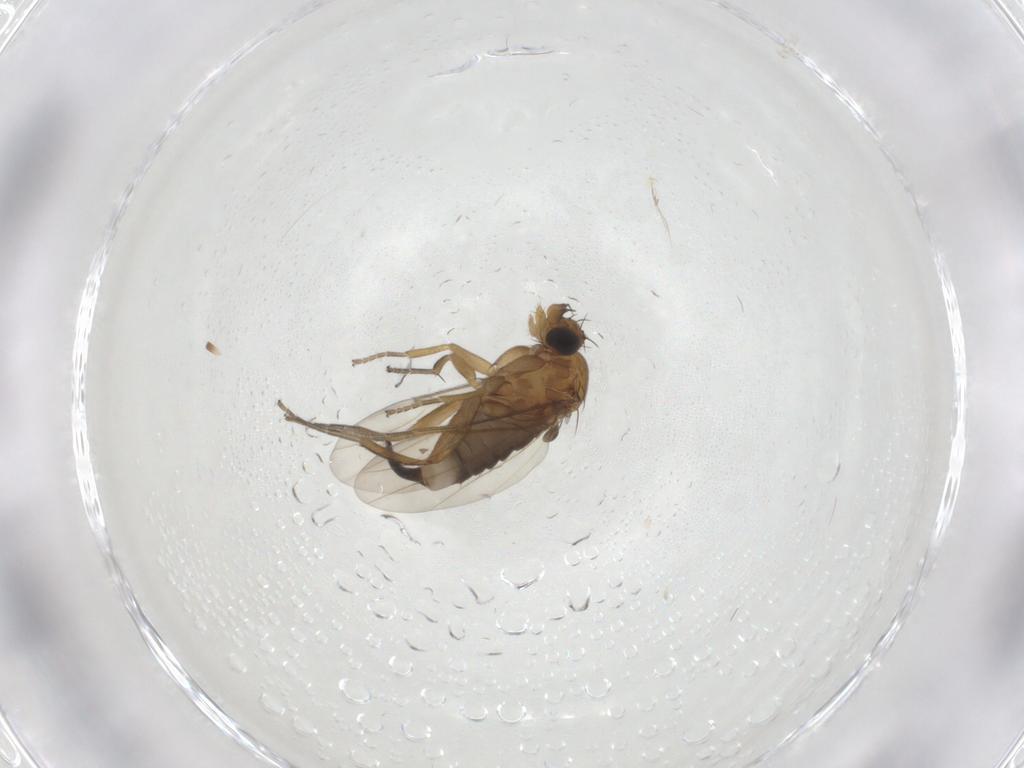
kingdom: Animalia
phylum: Arthropoda
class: Insecta
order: Diptera
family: Phoridae
